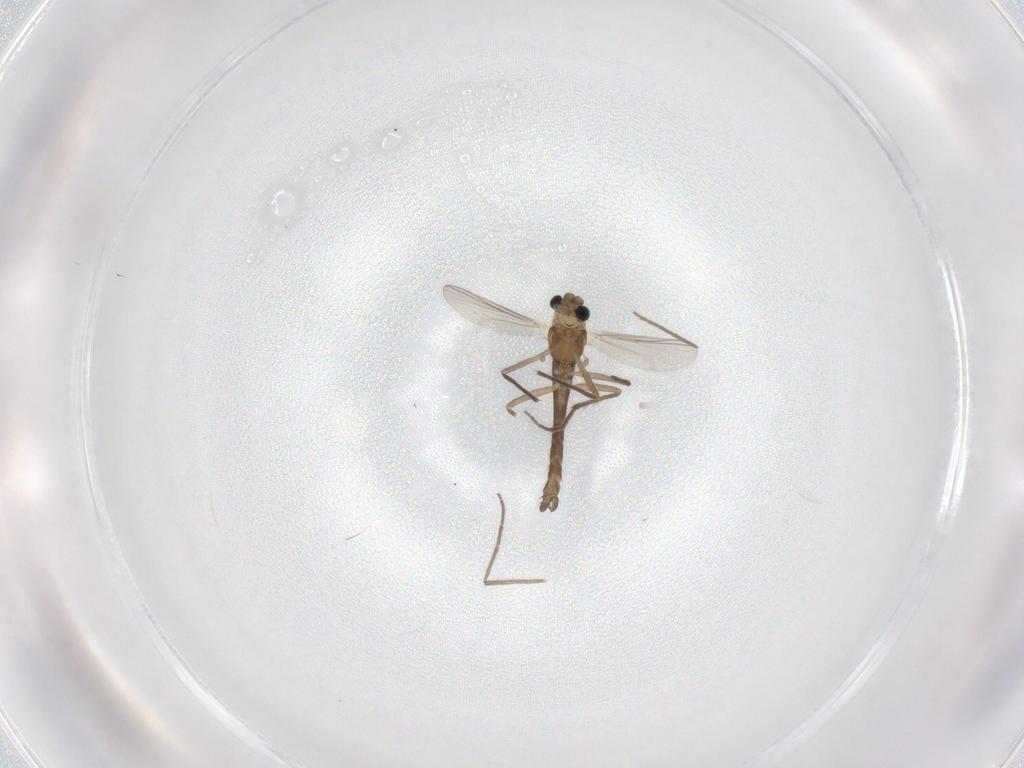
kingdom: Animalia
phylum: Arthropoda
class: Insecta
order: Diptera
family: Chironomidae
